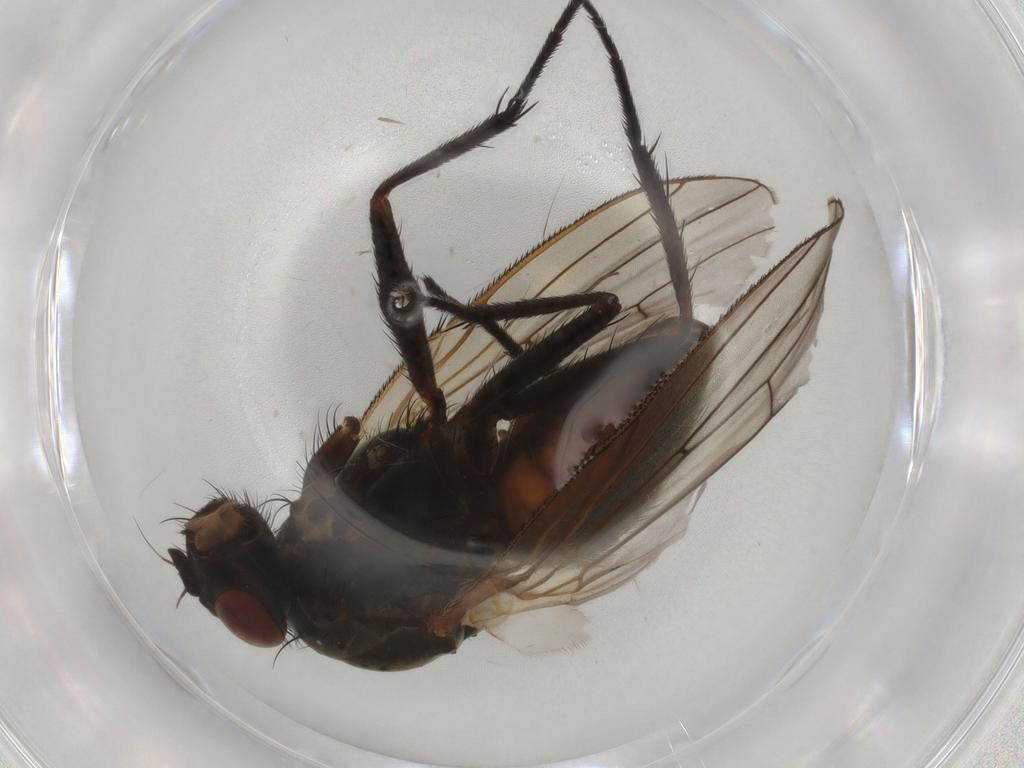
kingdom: Animalia
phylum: Arthropoda
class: Insecta
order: Diptera
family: Anthomyiidae
